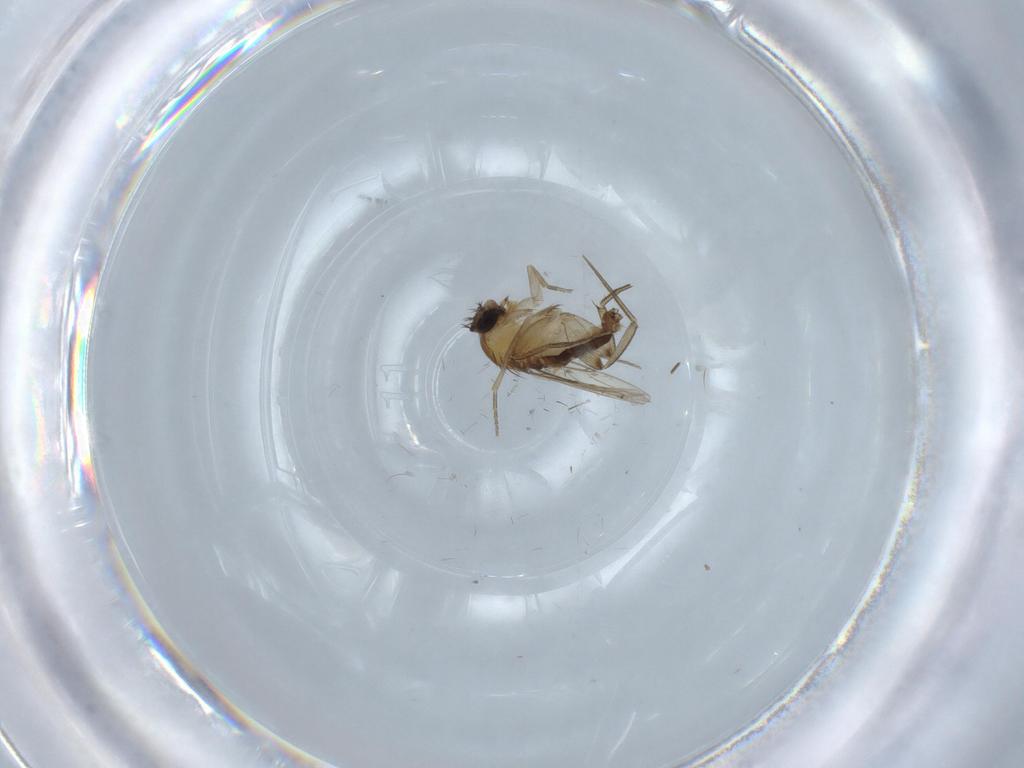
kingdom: Animalia
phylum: Arthropoda
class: Insecta
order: Diptera
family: Phoridae
